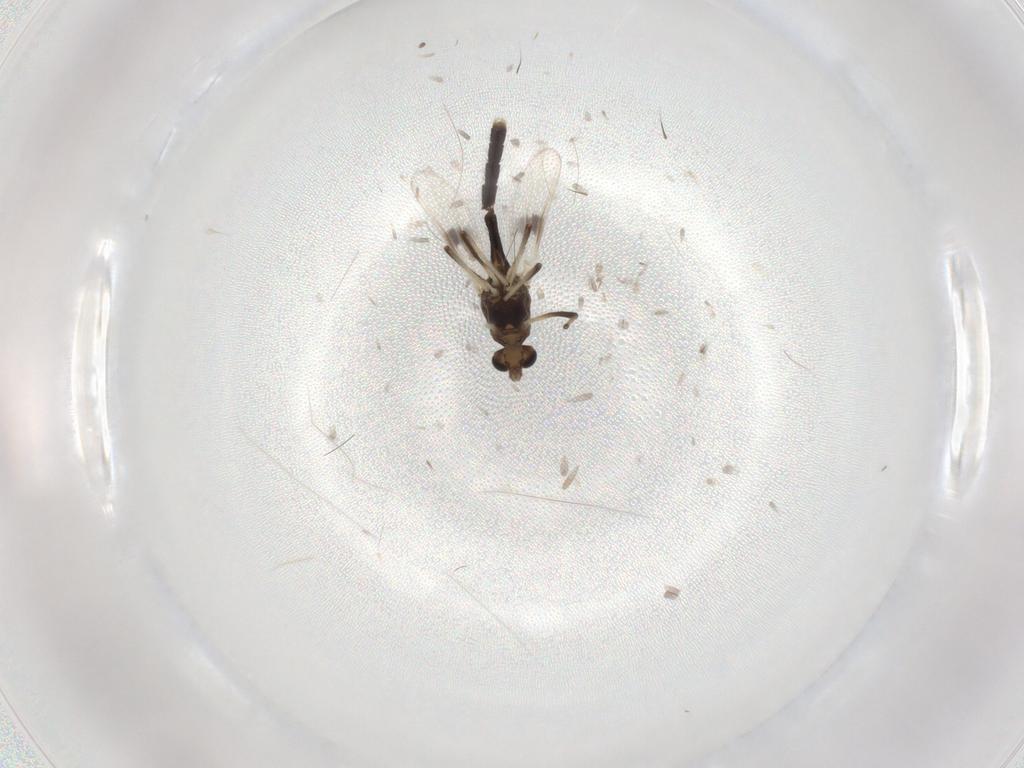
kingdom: Animalia
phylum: Arthropoda
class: Insecta
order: Diptera
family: Chironomidae
